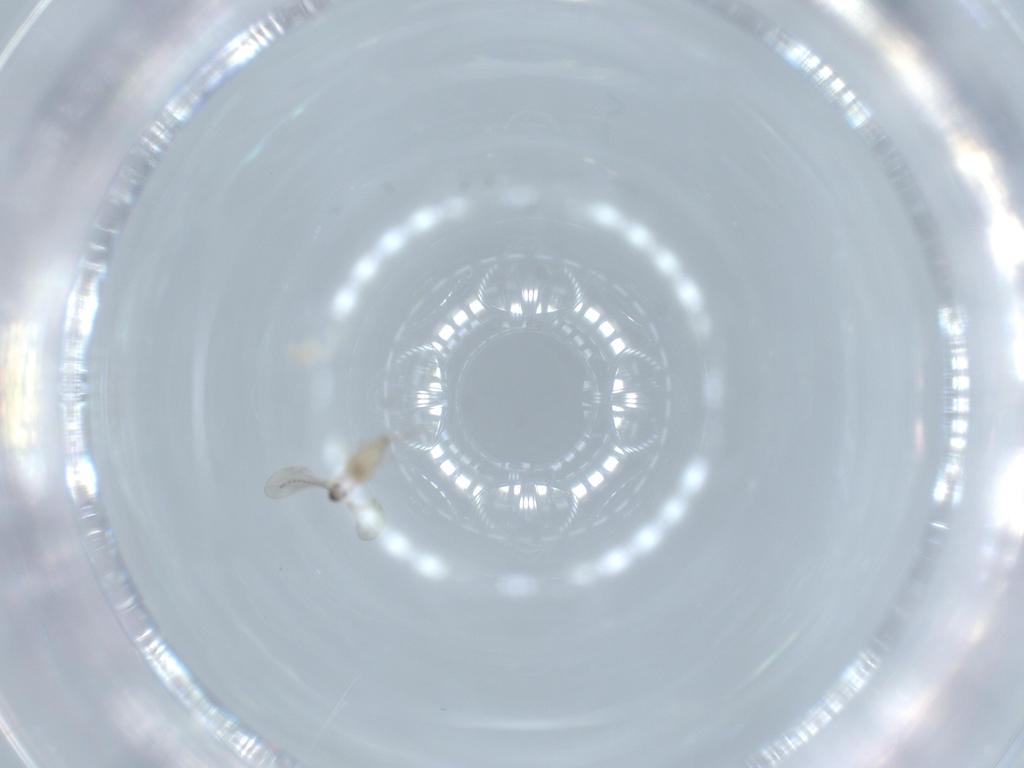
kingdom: Animalia
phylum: Arthropoda
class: Insecta
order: Diptera
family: Cecidomyiidae
